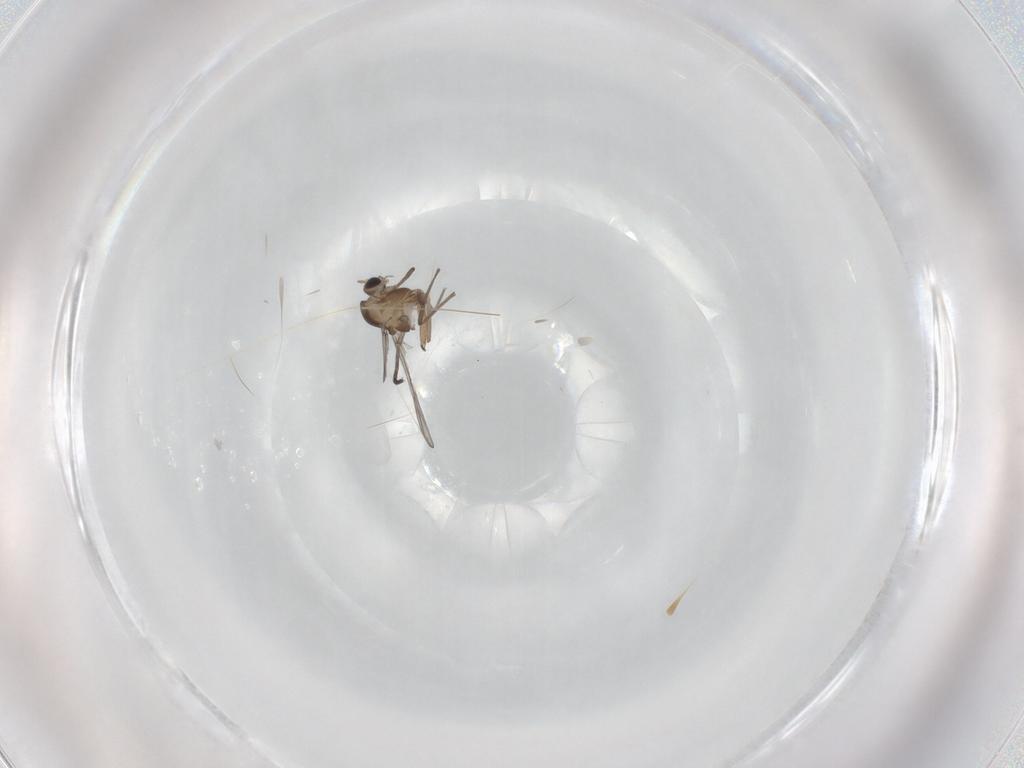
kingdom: Animalia
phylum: Arthropoda
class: Insecta
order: Diptera
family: Chironomidae
